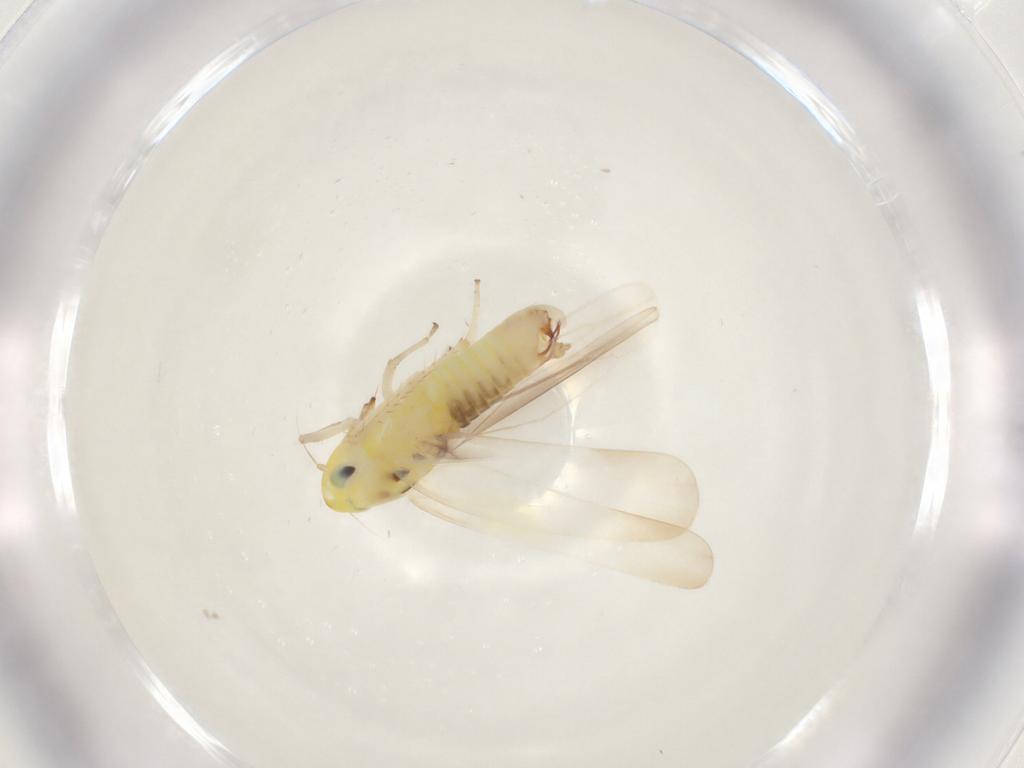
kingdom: Animalia
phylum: Arthropoda
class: Insecta
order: Hemiptera
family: Cicadellidae
